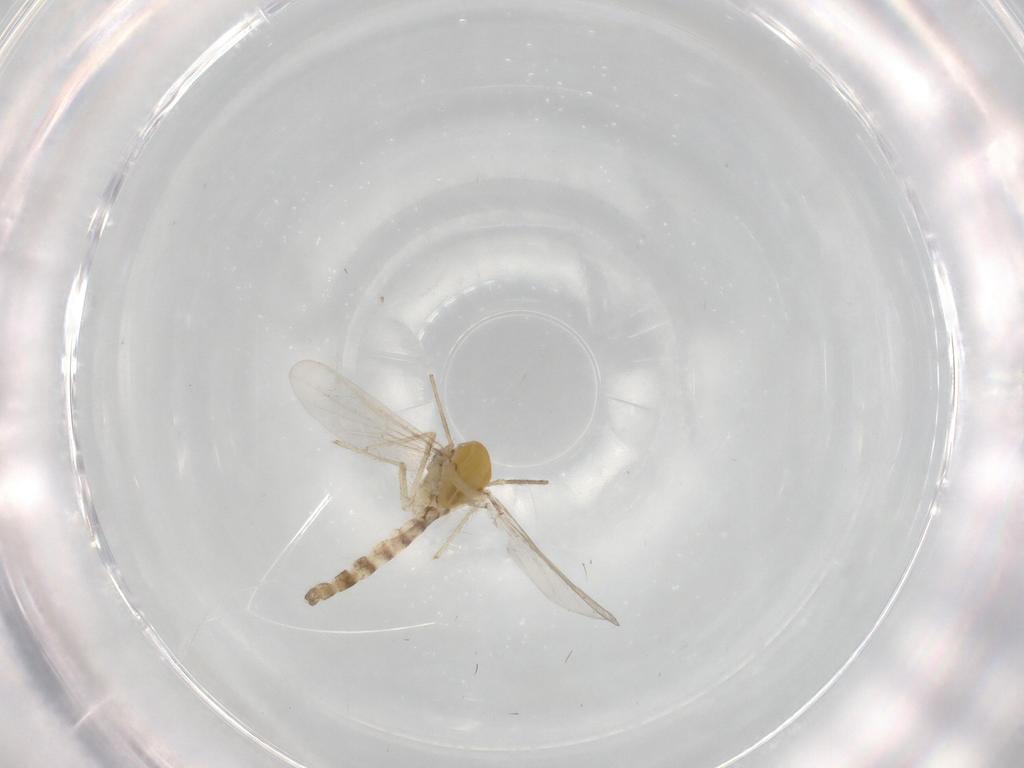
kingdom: Animalia
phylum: Arthropoda
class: Insecta
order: Diptera
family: Chironomidae
